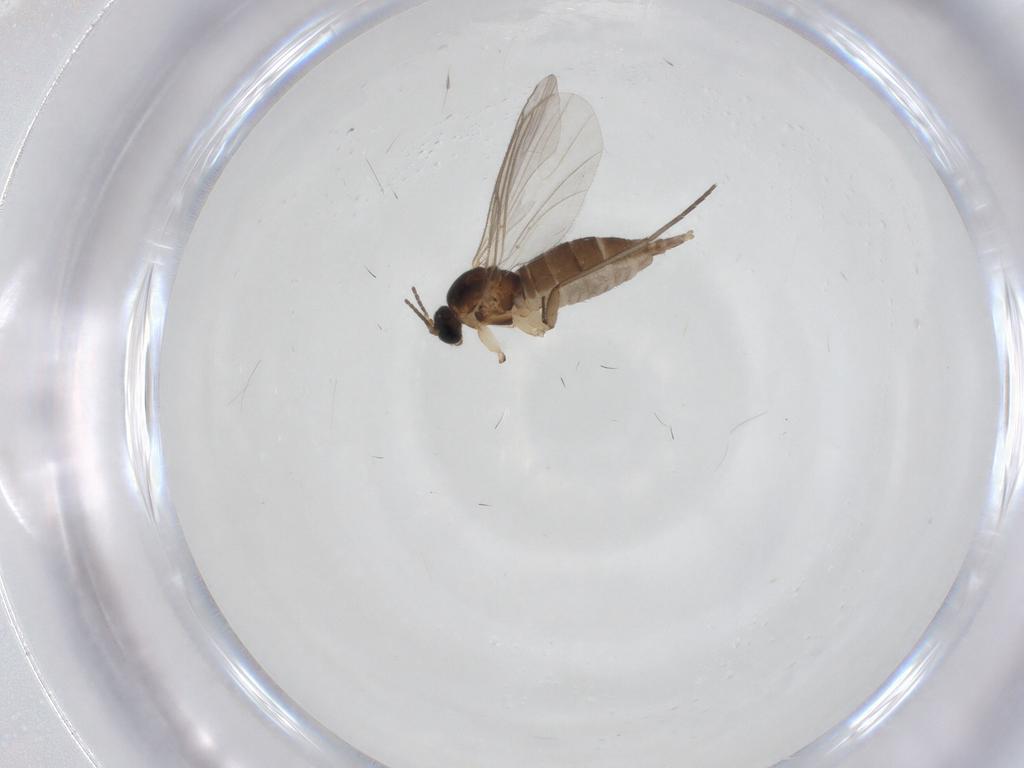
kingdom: Animalia
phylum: Arthropoda
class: Insecta
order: Diptera
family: Chironomidae
